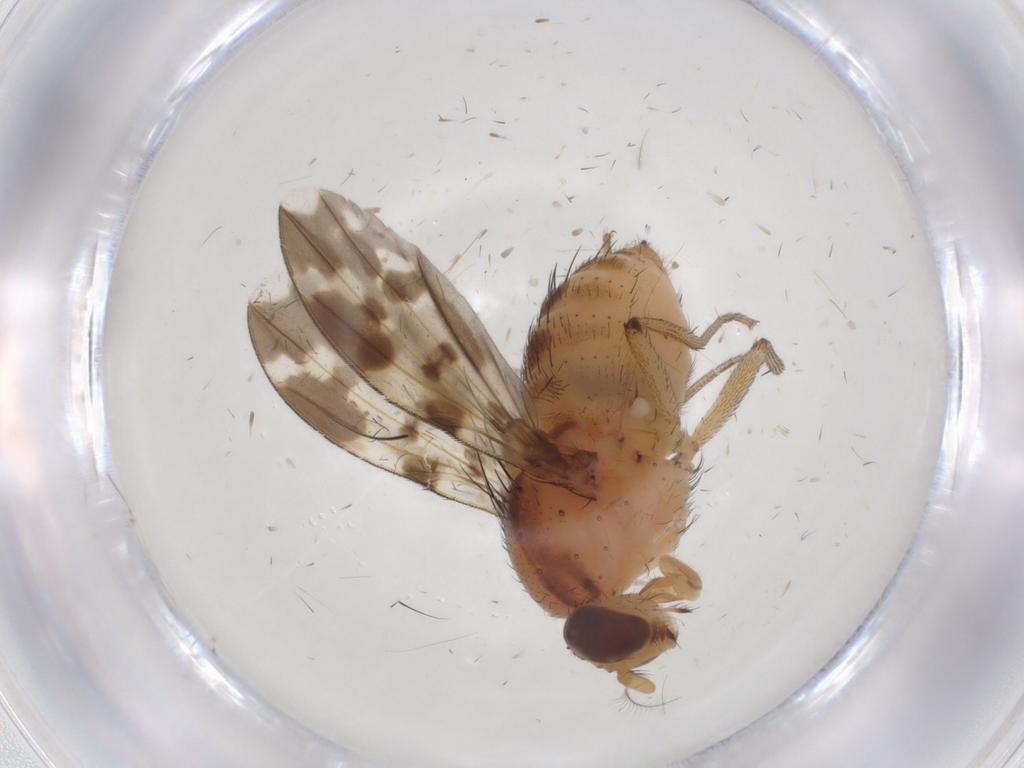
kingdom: Animalia
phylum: Arthropoda
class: Insecta
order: Diptera
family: Tachinidae
